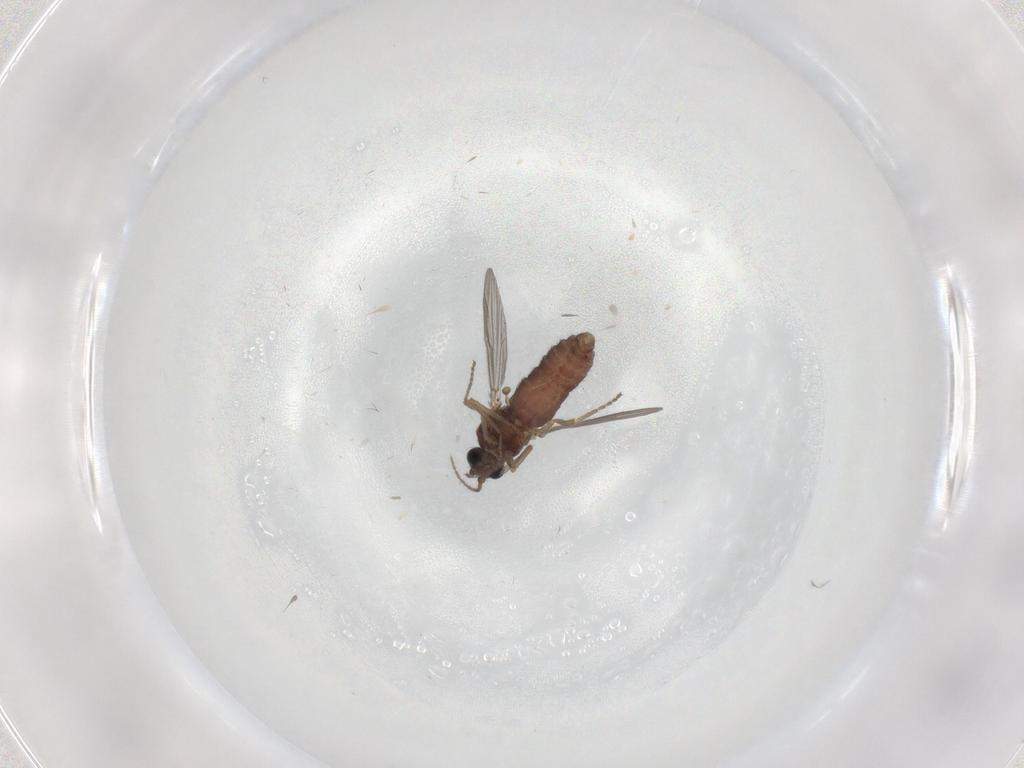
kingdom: Animalia
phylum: Arthropoda
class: Insecta
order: Diptera
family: Ceratopogonidae
